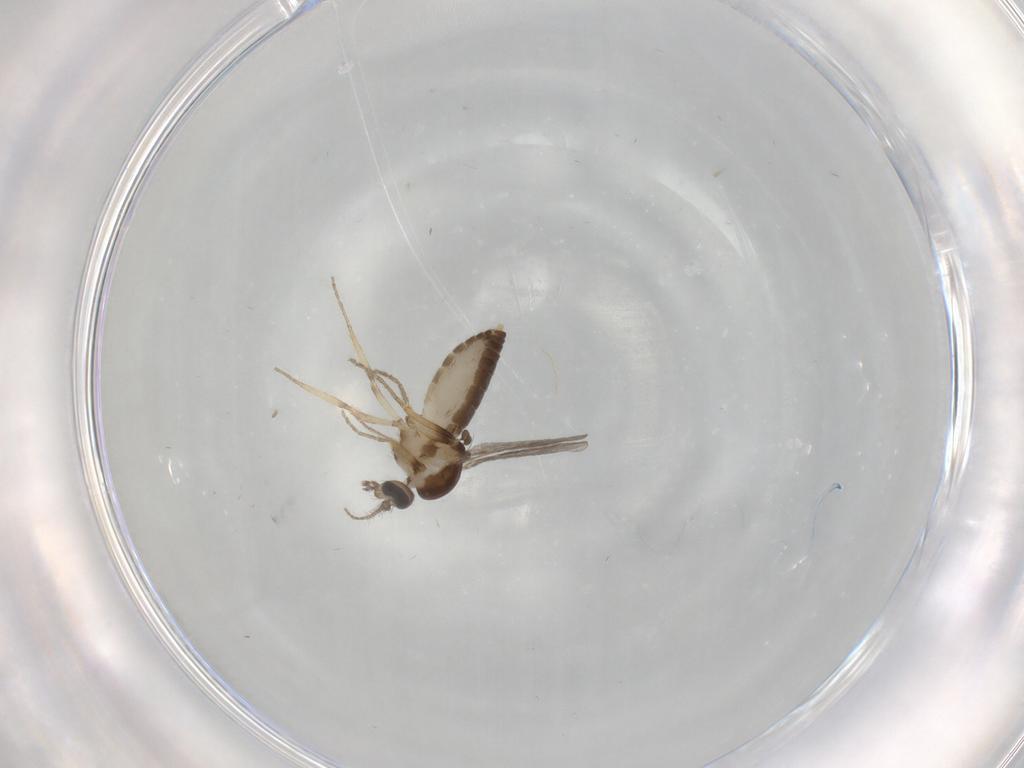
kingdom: Animalia
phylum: Arthropoda
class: Insecta
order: Diptera
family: Ceratopogonidae
